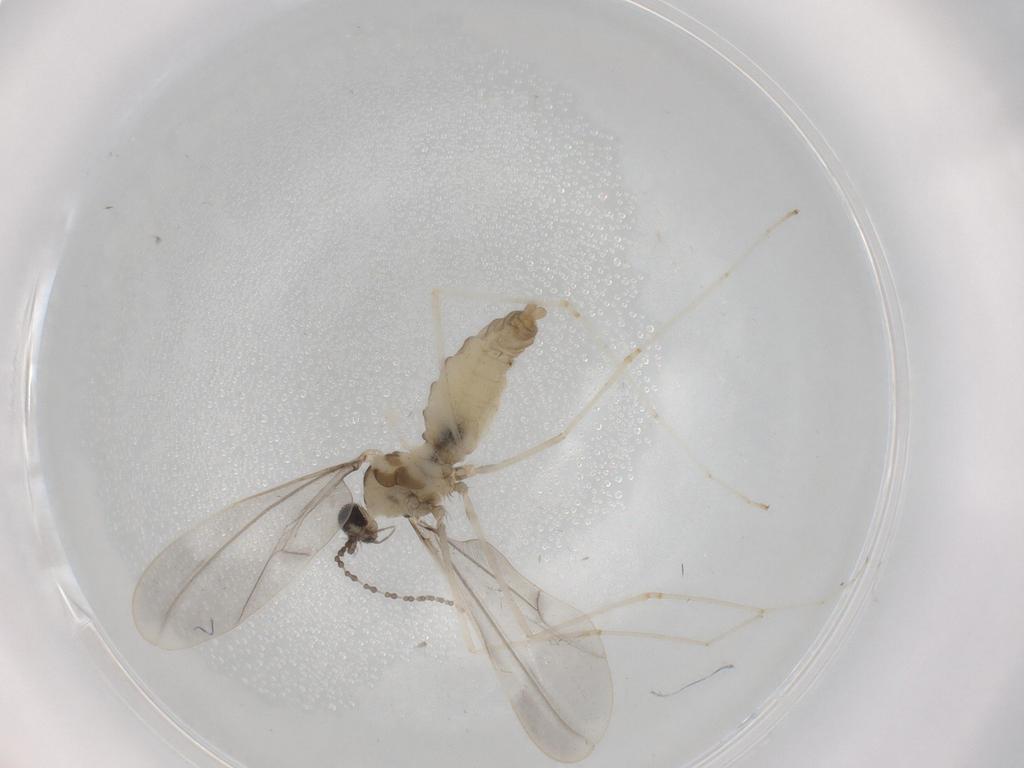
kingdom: Animalia
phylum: Arthropoda
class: Insecta
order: Diptera
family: Cecidomyiidae
